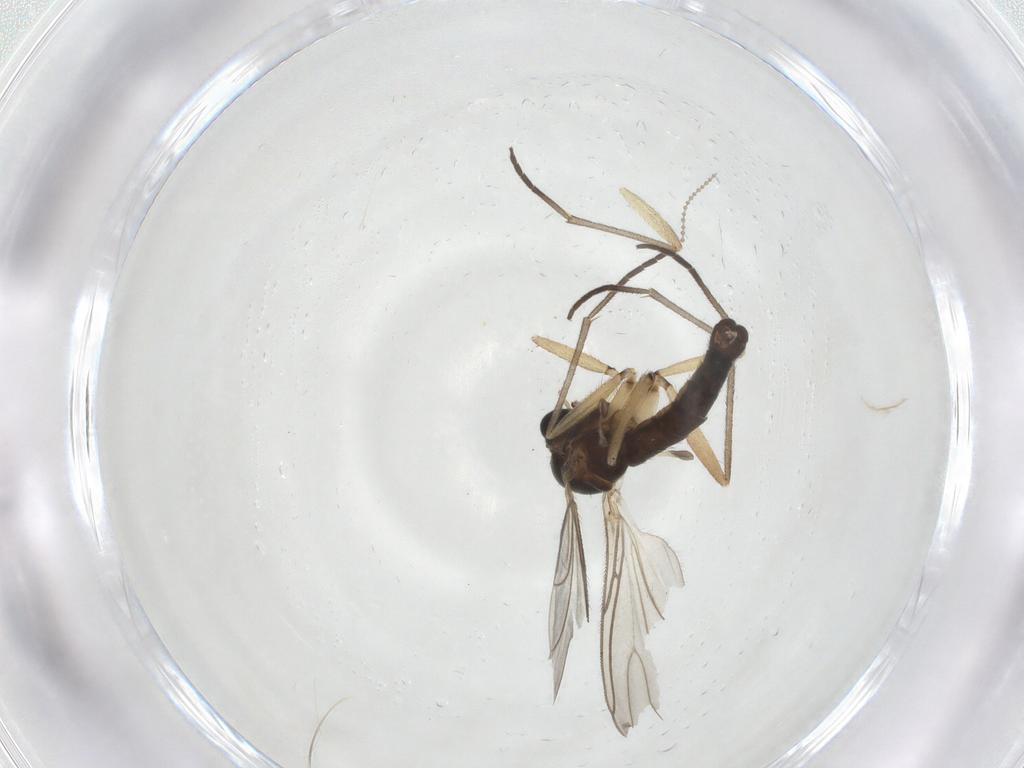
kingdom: Animalia
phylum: Arthropoda
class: Insecta
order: Diptera
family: Sciaridae
